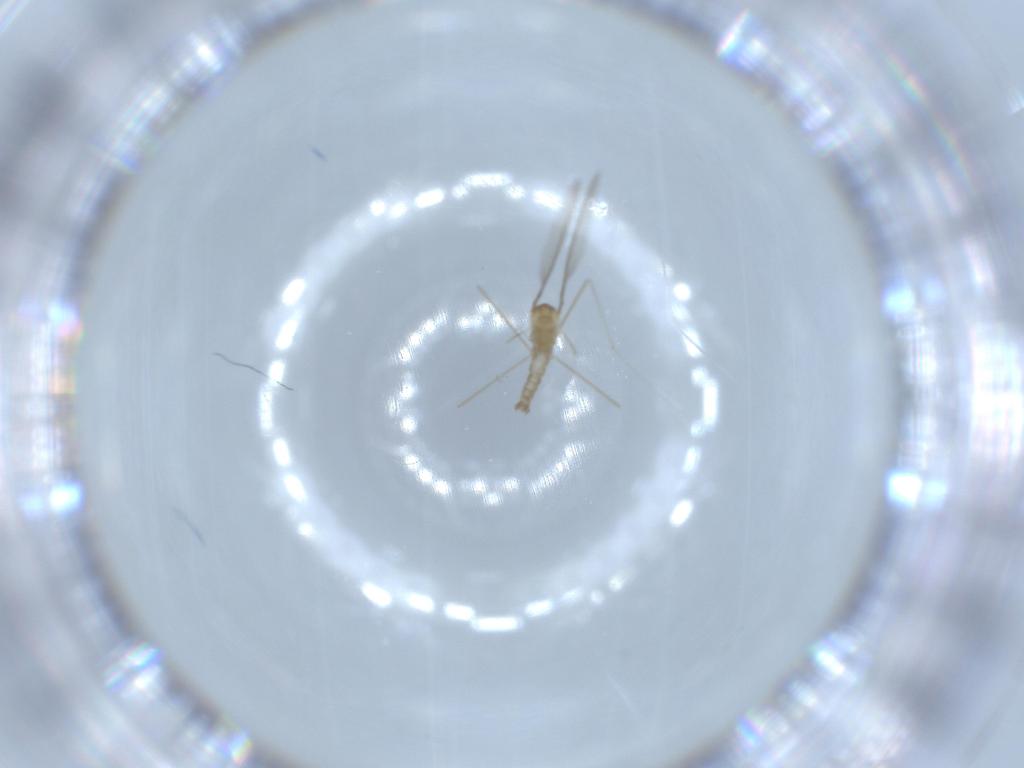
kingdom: Animalia
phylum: Arthropoda
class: Insecta
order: Diptera
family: Cecidomyiidae
